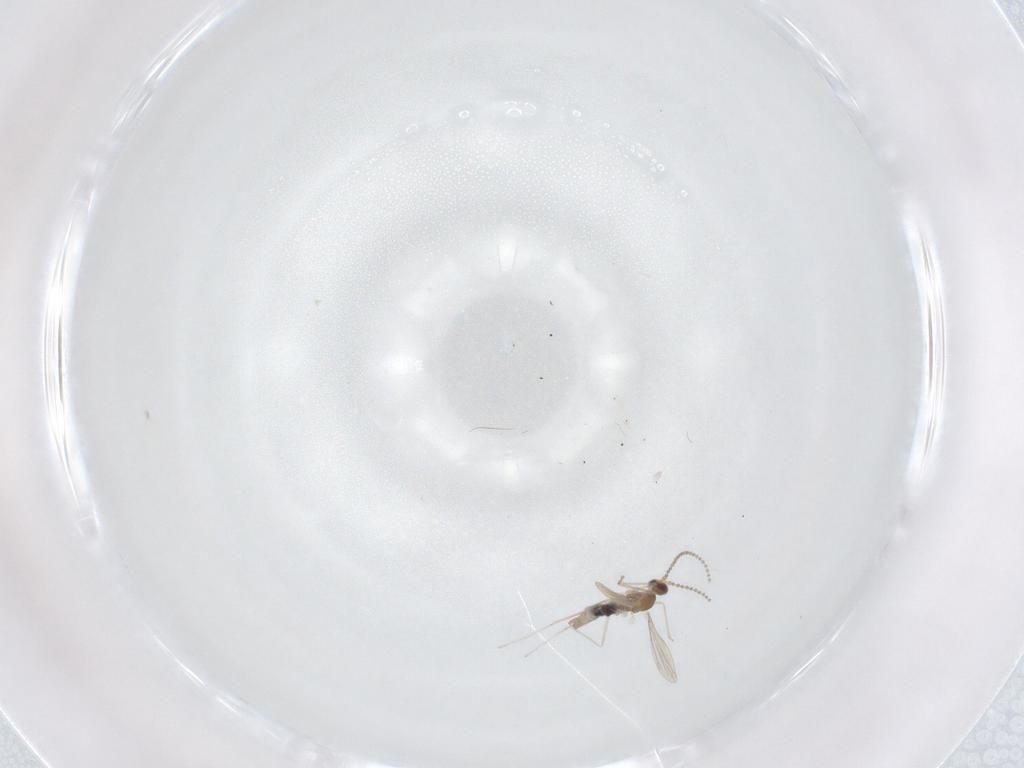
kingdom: Animalia
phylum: Arthropoda
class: Insecta
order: Diptera
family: Cecidomyiidae
